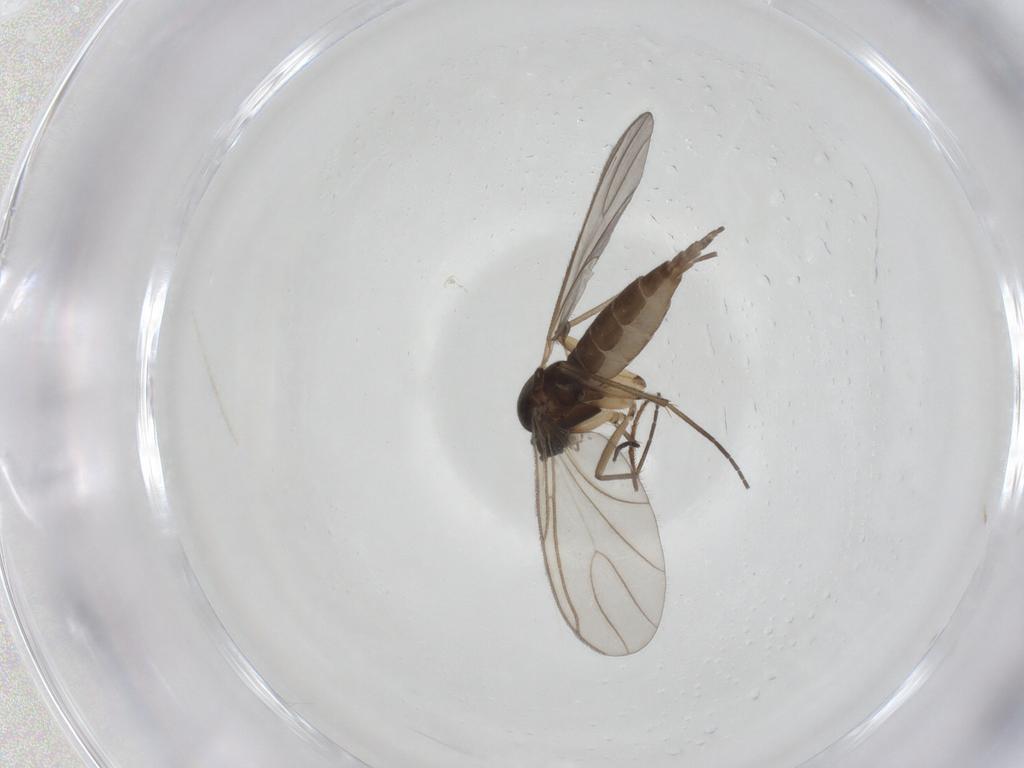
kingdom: Animalia
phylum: Arthropoda
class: Insecta
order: Diptera
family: Sciaridae
